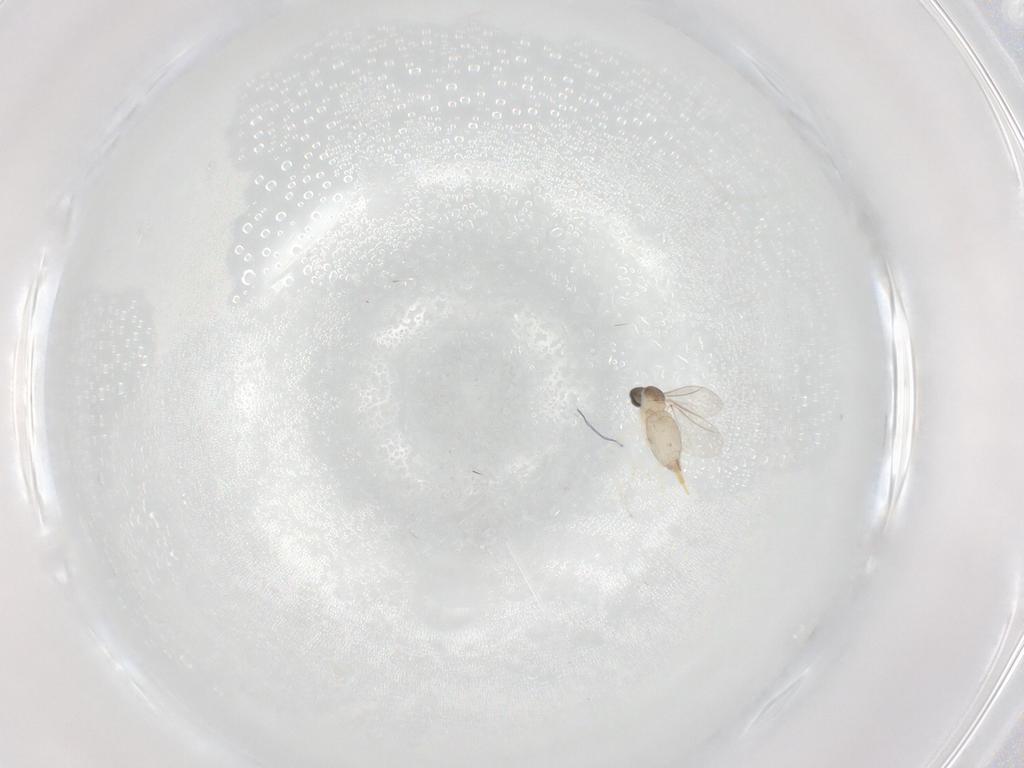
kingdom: Animalia
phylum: Arthropoda
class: Insecta
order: Diptera
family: Cecidomyiidae
